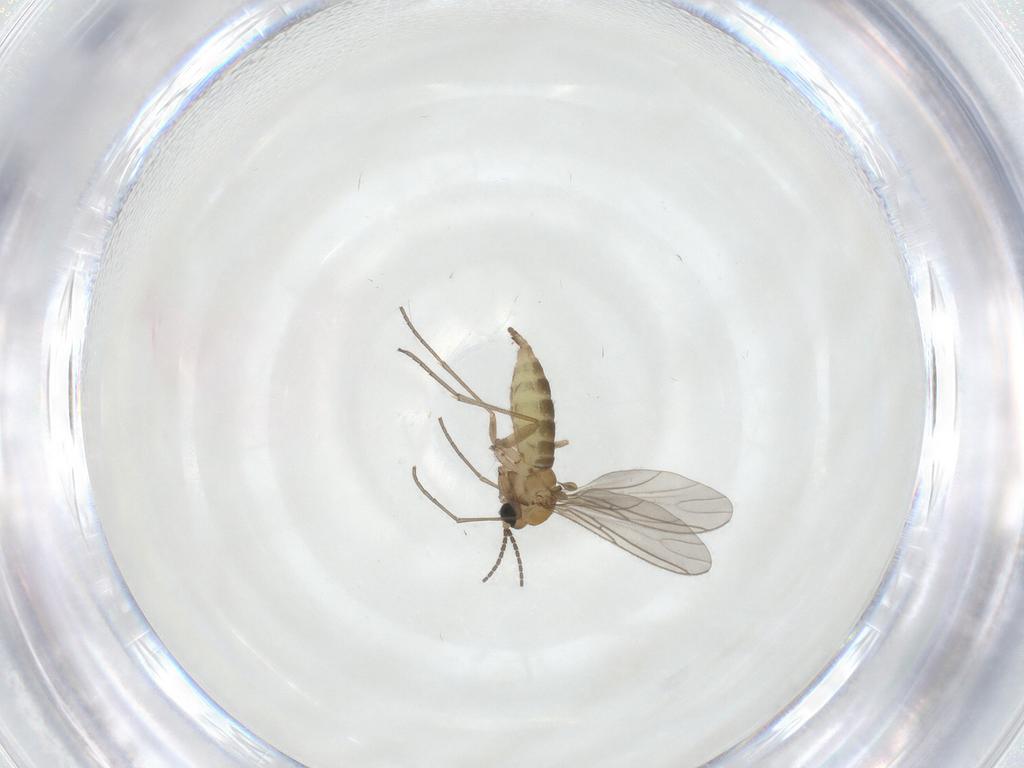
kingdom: Animalia
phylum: Arthropoda
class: Insecta
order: Diptera
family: Sciaridae
